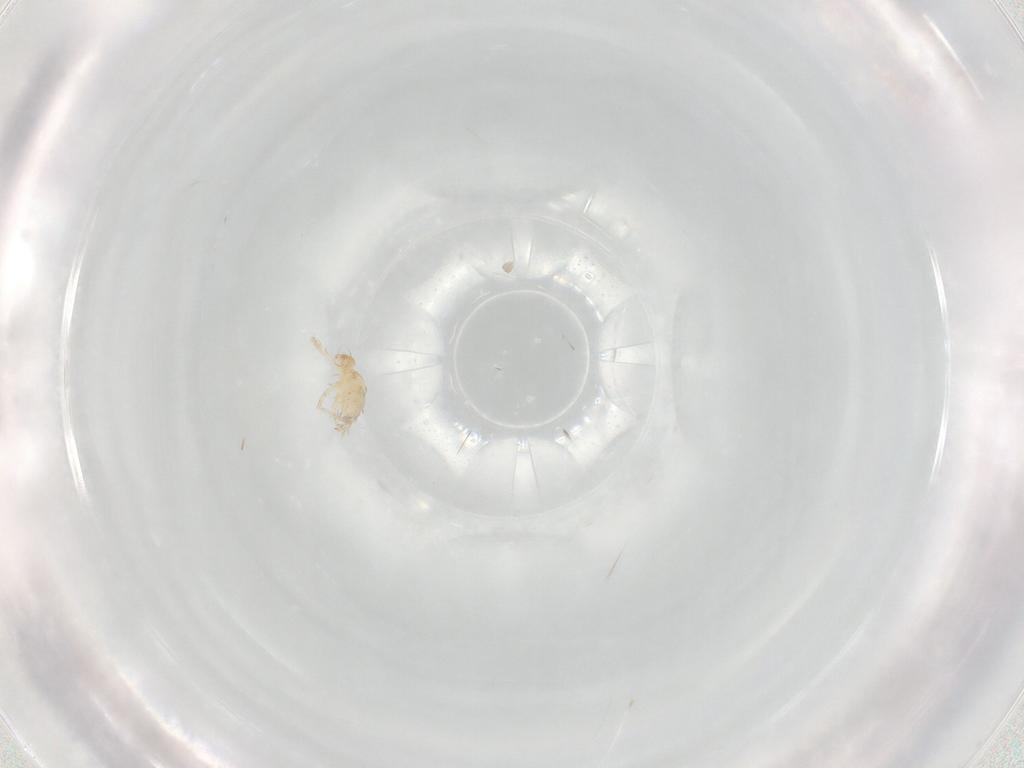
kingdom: Animalia
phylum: Arthropoda
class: Arachnida
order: Trombidiformes
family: Erythraeidae
